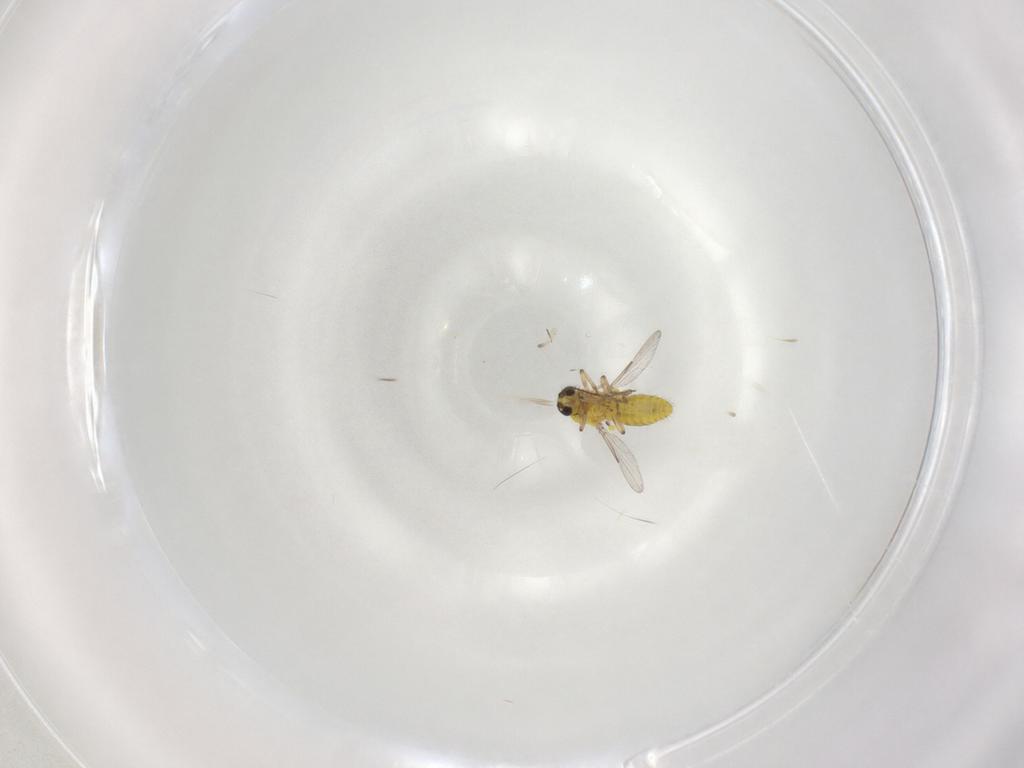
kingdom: Animalia
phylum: Arthropoda
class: Insecta
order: Diptera
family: Ceratopogonidae
